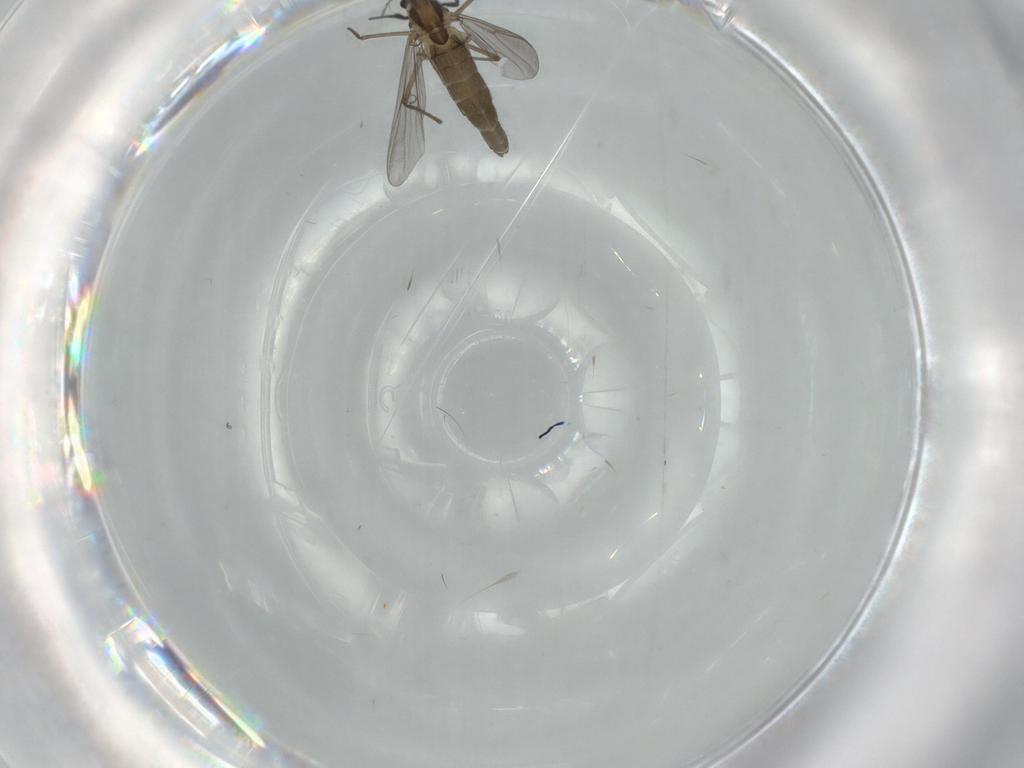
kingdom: Animalia
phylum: Arthropoda
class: Insecta
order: Diptera
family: Chironomidae
